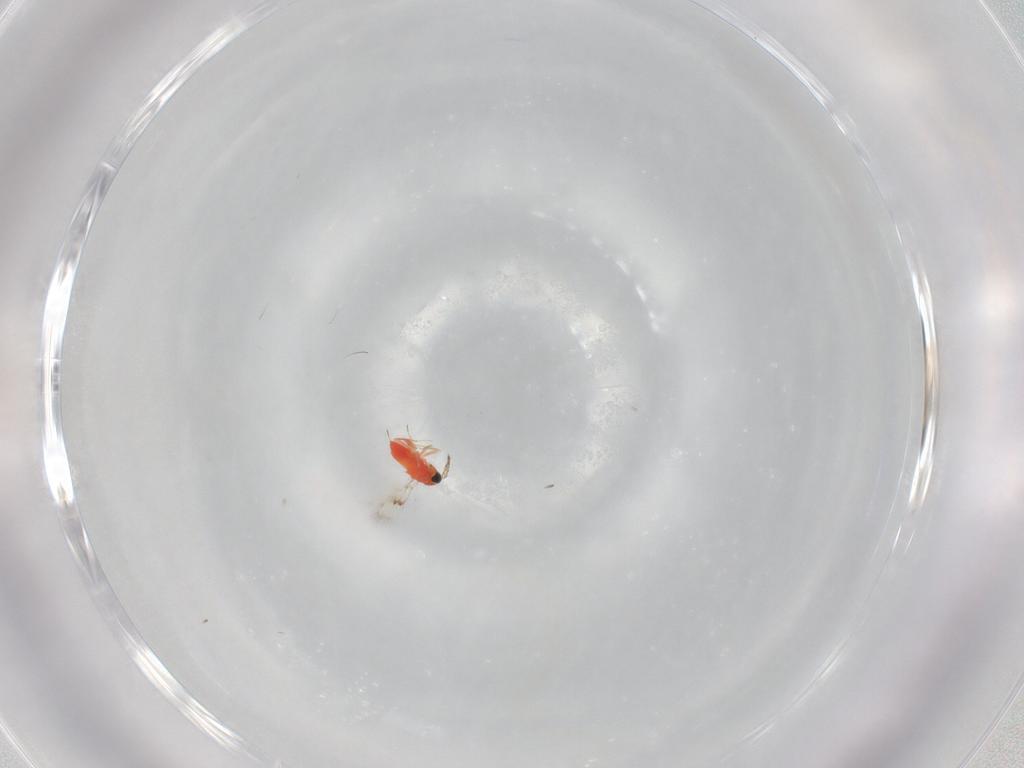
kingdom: Animalia
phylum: Arthropoda
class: Insecta
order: Hymenoptera
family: Trichogrammatidae
